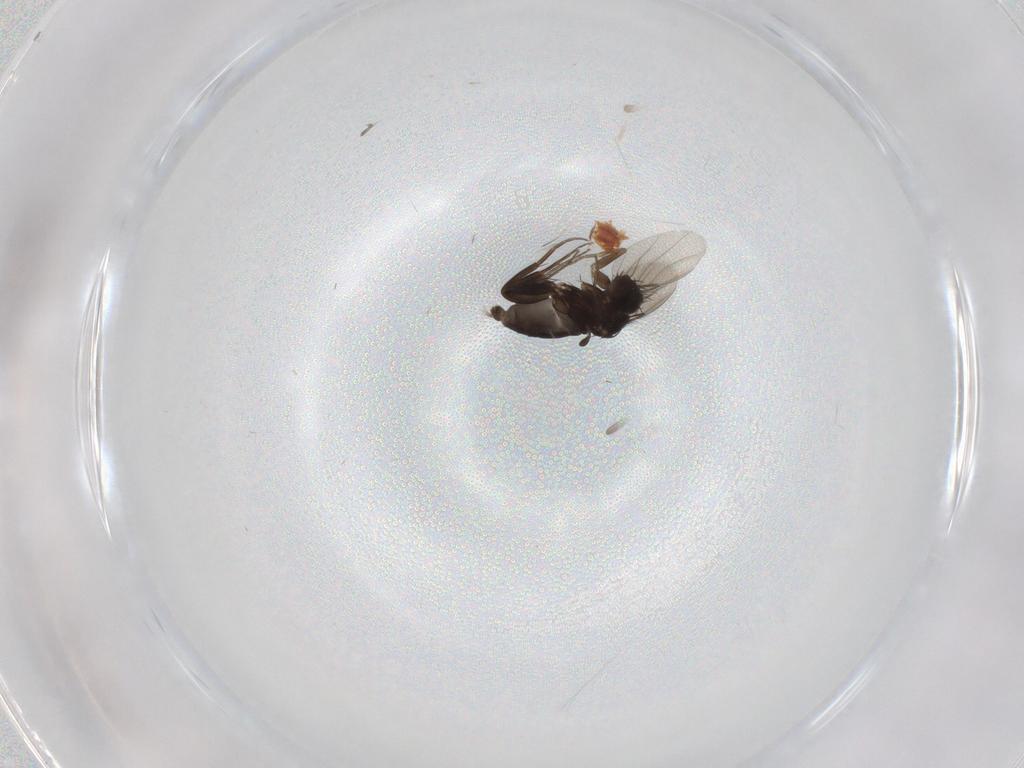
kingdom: Animalia
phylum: Arthropoda
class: Insecta
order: Diptera
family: Phoridae
